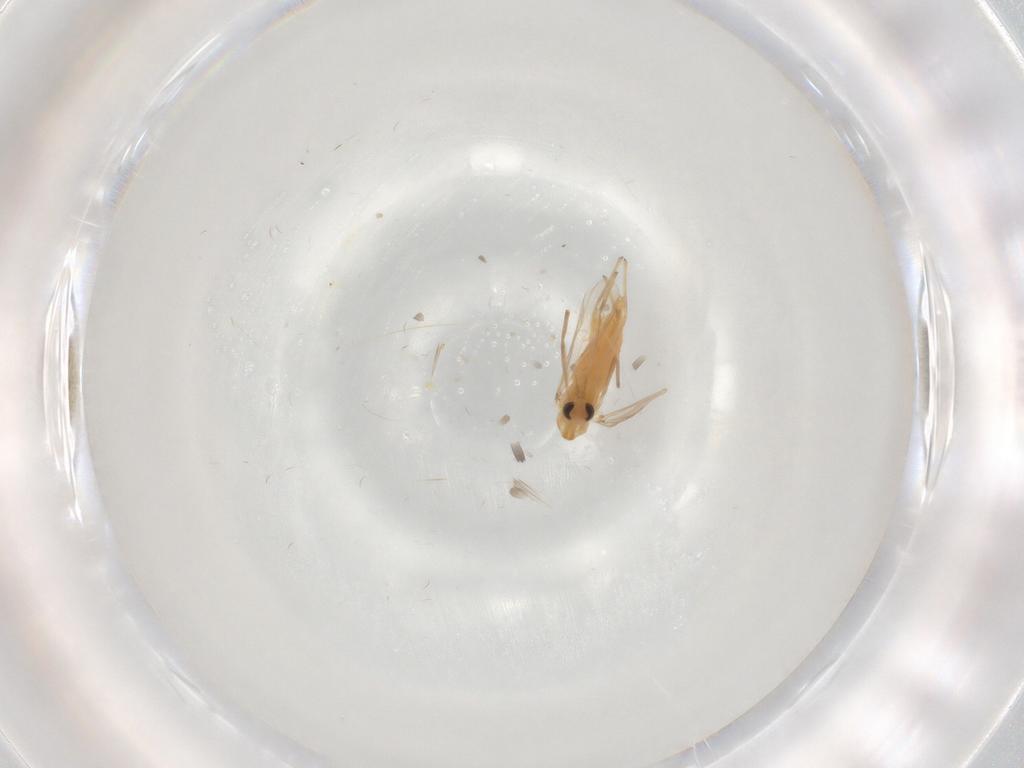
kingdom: Animalia
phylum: Arthropoda
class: Insecta
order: Diptera
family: Chironomidae
